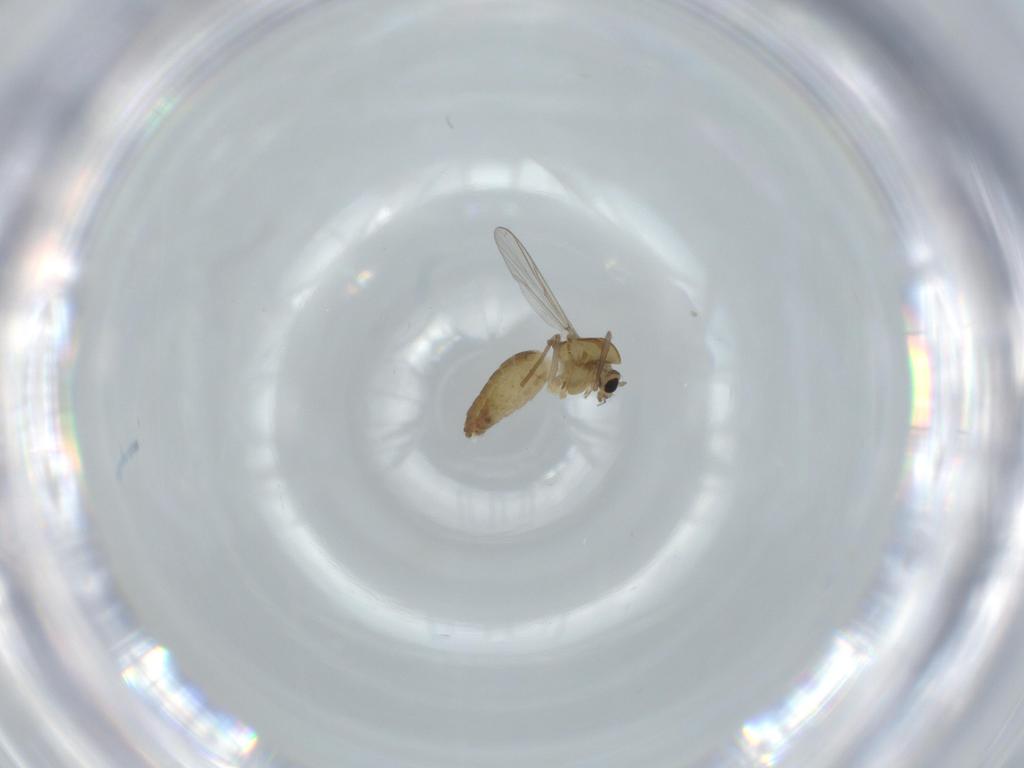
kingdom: Animalia
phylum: Arthropoda
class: Insecta
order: Diptera
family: Chironomidae
